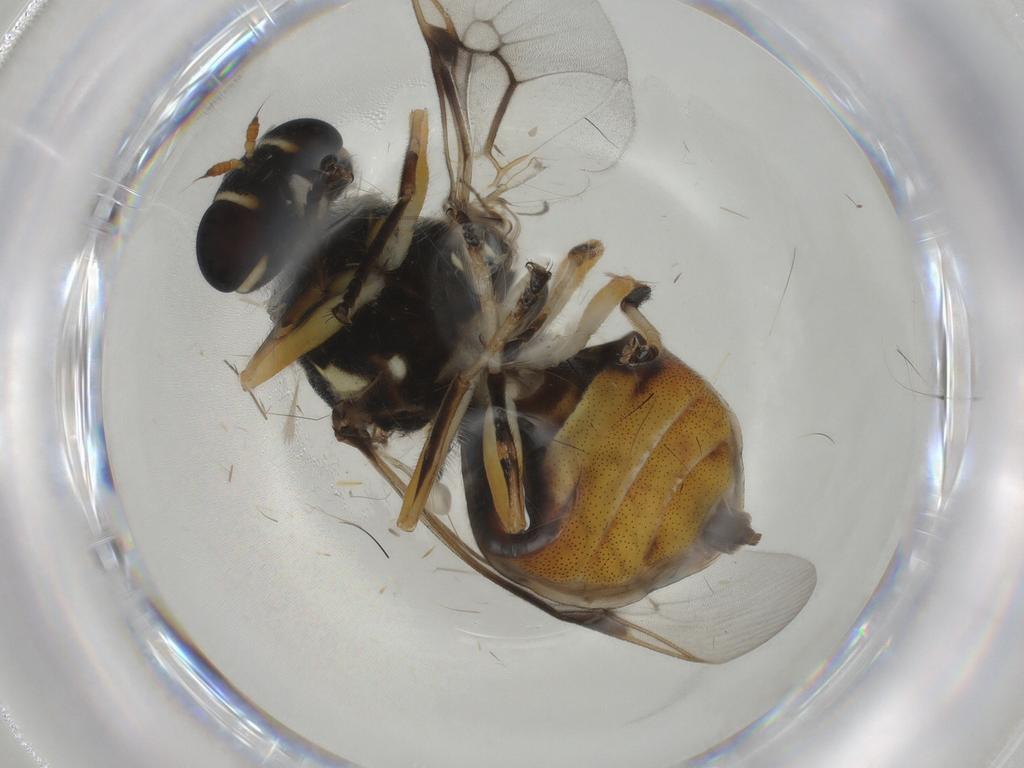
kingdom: Animalia
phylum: Arthropoda
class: Insecta
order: Diptera
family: Stratiomyidae
